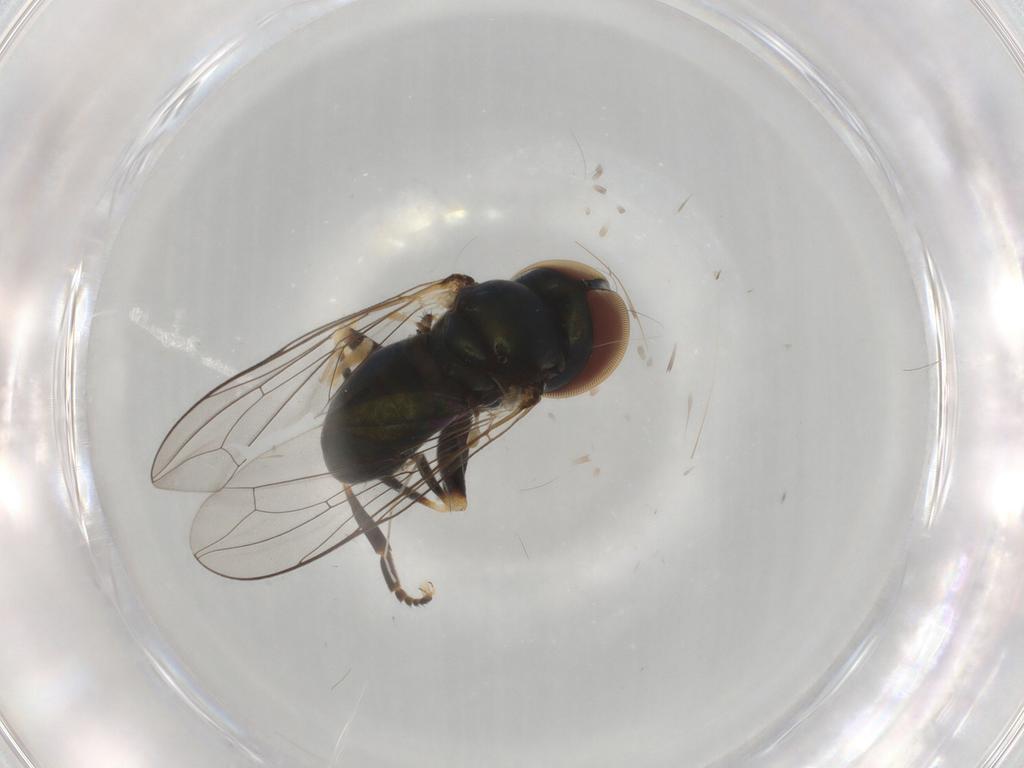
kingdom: Animalia
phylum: Arthropoda
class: Insecta
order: Diptera
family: Pipunculidae
